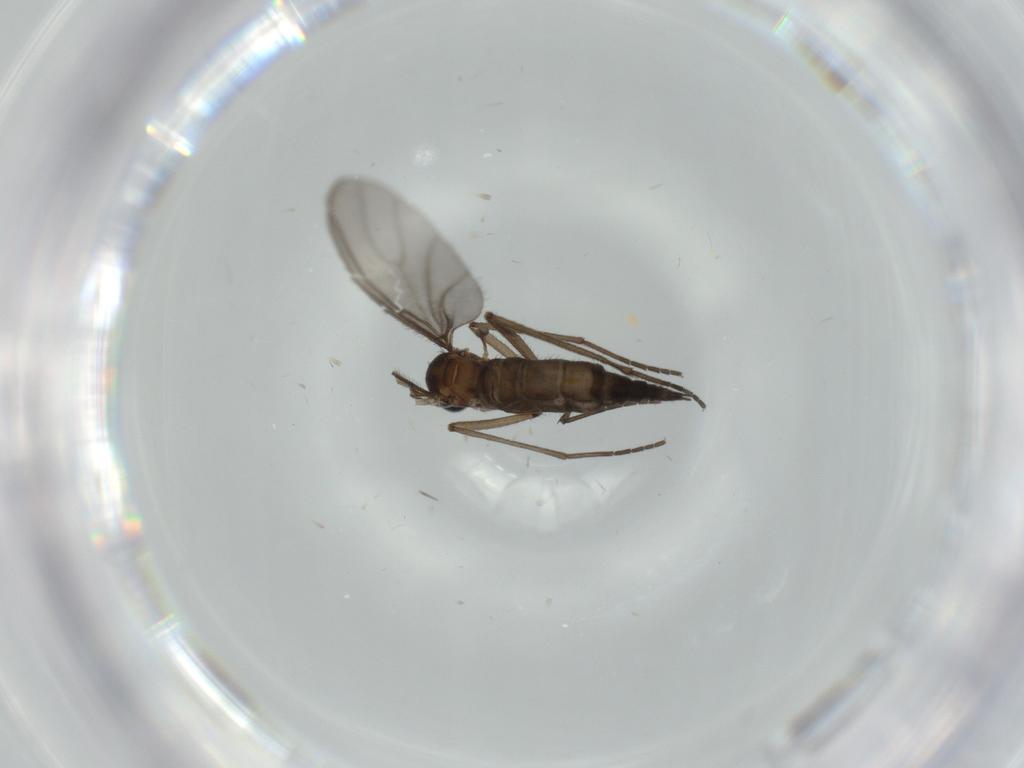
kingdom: Animalia
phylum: Arthropoda
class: Insecta
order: Diptera
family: Sciaridae
